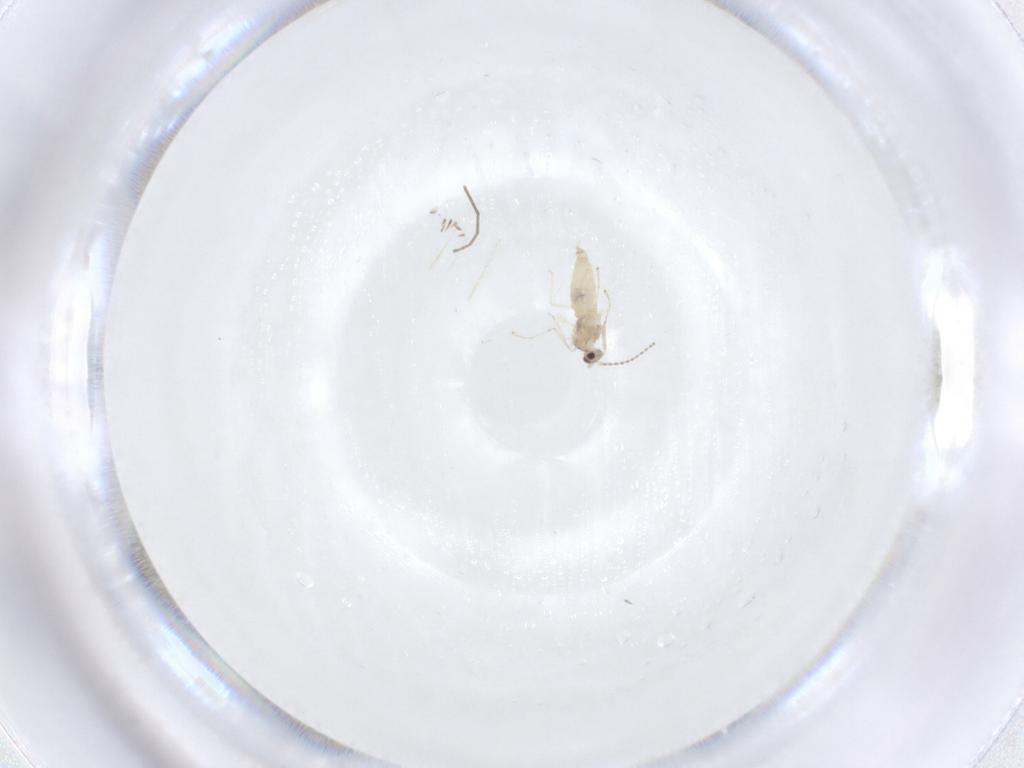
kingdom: Animalia
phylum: Arthropoda
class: Insecta
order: Diptera
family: Cecidomyiidae
